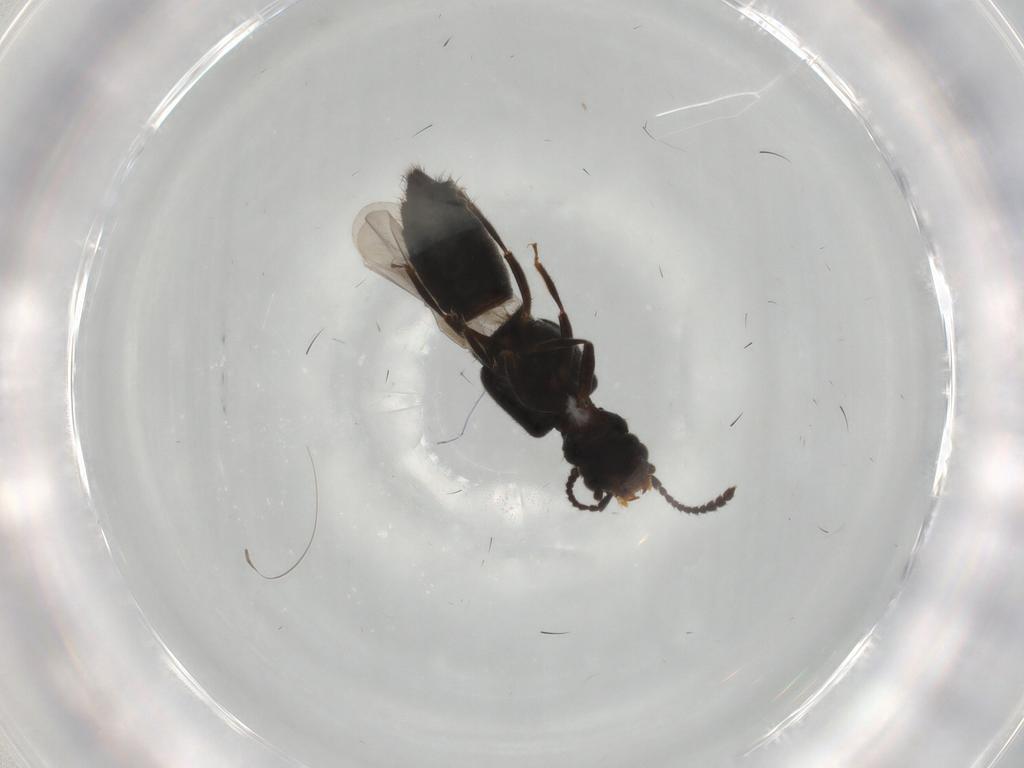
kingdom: Animalia
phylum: Arthropoda
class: Insecta
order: Coleoptera
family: Staphylinidae
